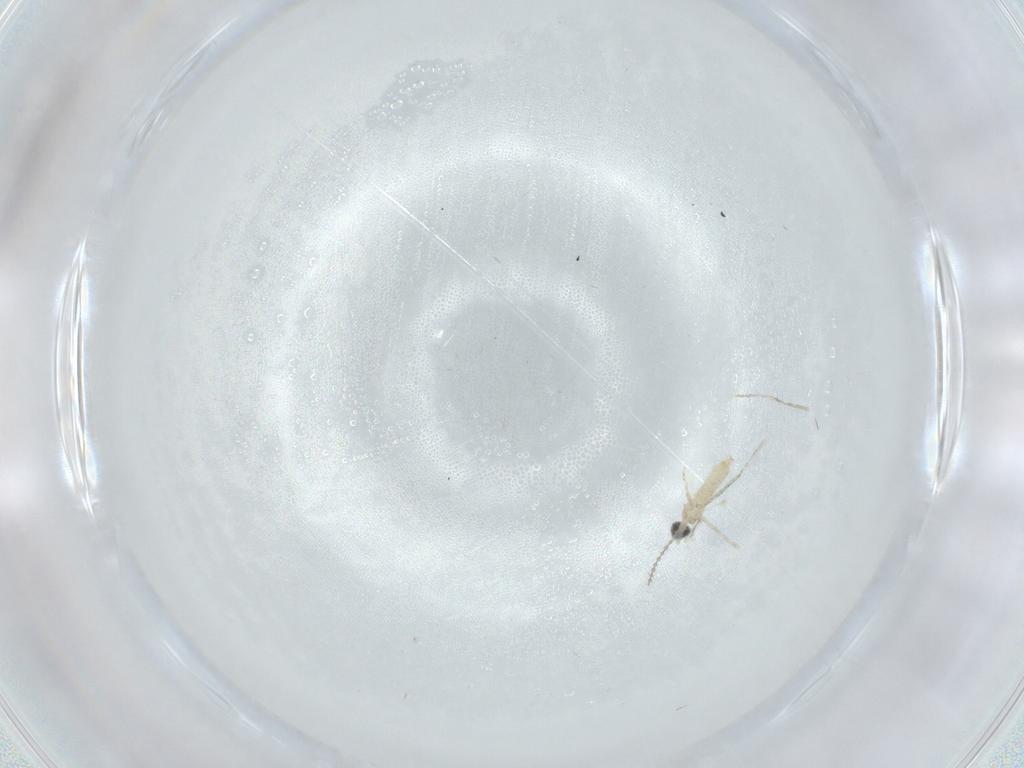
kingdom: Animalia
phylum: Arthropoda
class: Insecta
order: Diptera
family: Cecidomyiidae
